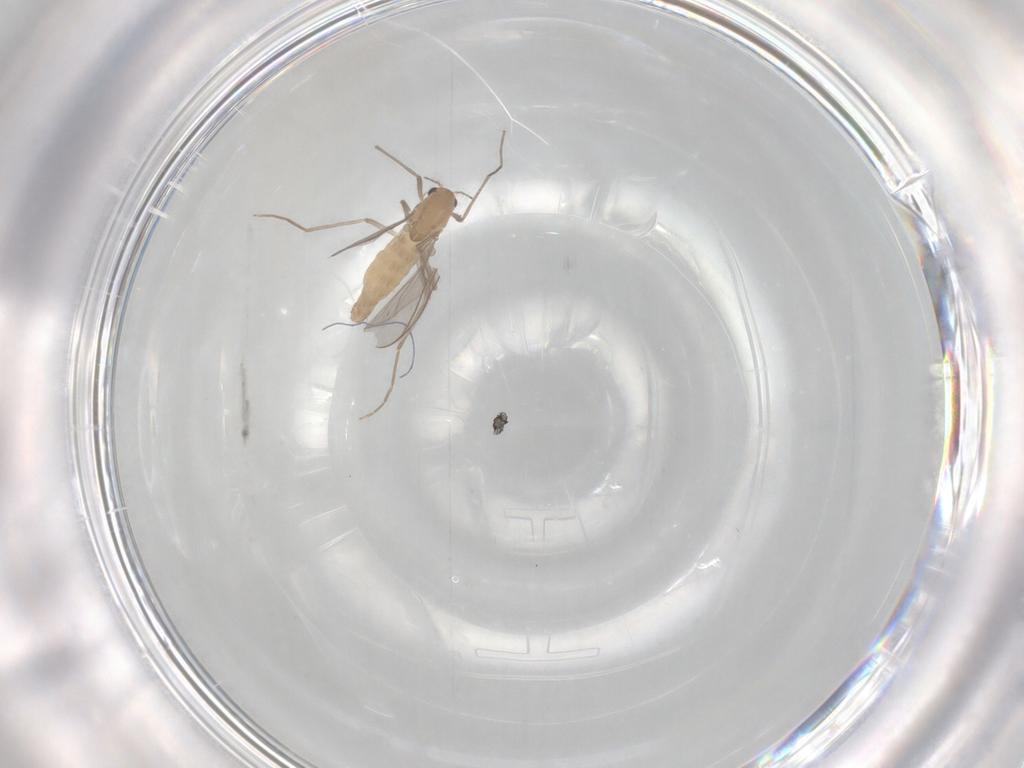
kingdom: Animalia
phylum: Arthropoda
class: Insecta
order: Diptera
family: Chironomidae
